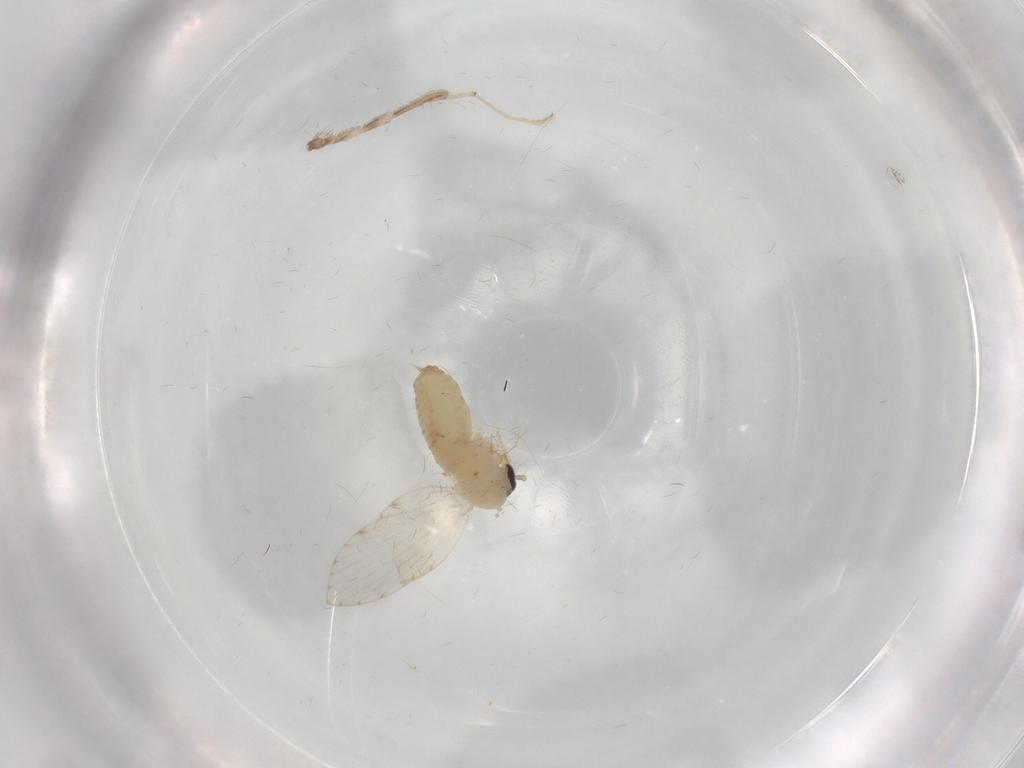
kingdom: Animalia
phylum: Arthropoda
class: Insecta
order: Diptera
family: Psychodidae
